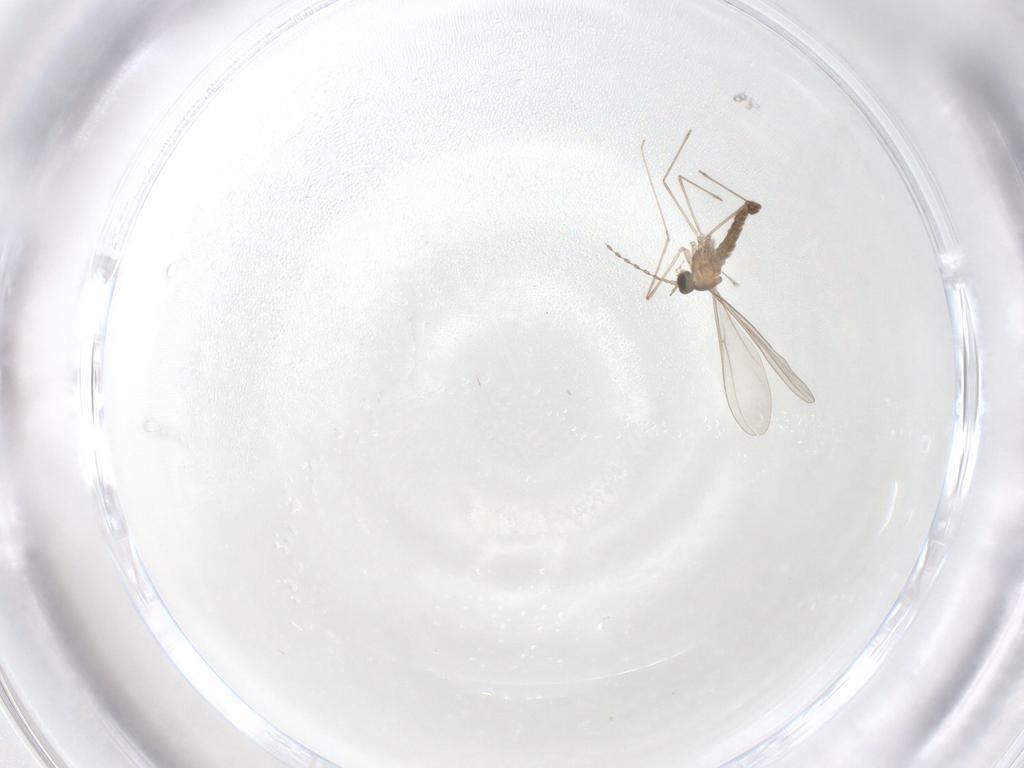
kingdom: Animalia
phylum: Arthropoda
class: Insecta
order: Diptera
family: Cecidomyiidae
